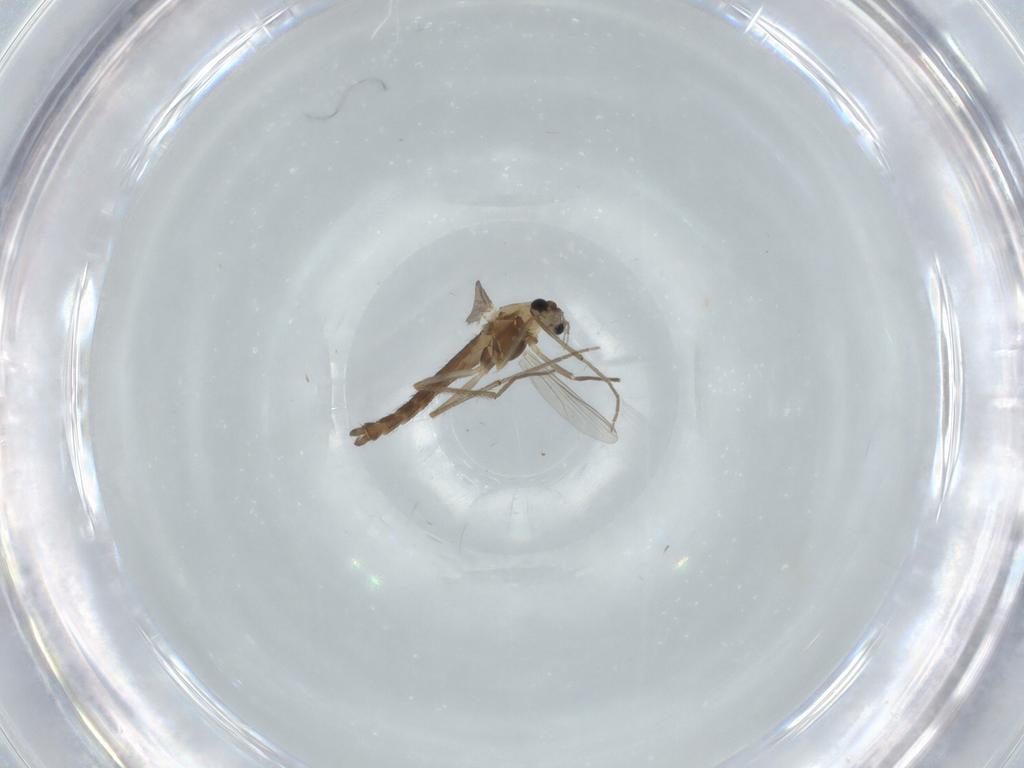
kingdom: Animalia
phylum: Arthropoda
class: Insecta
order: Diptera
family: Chironomidae
